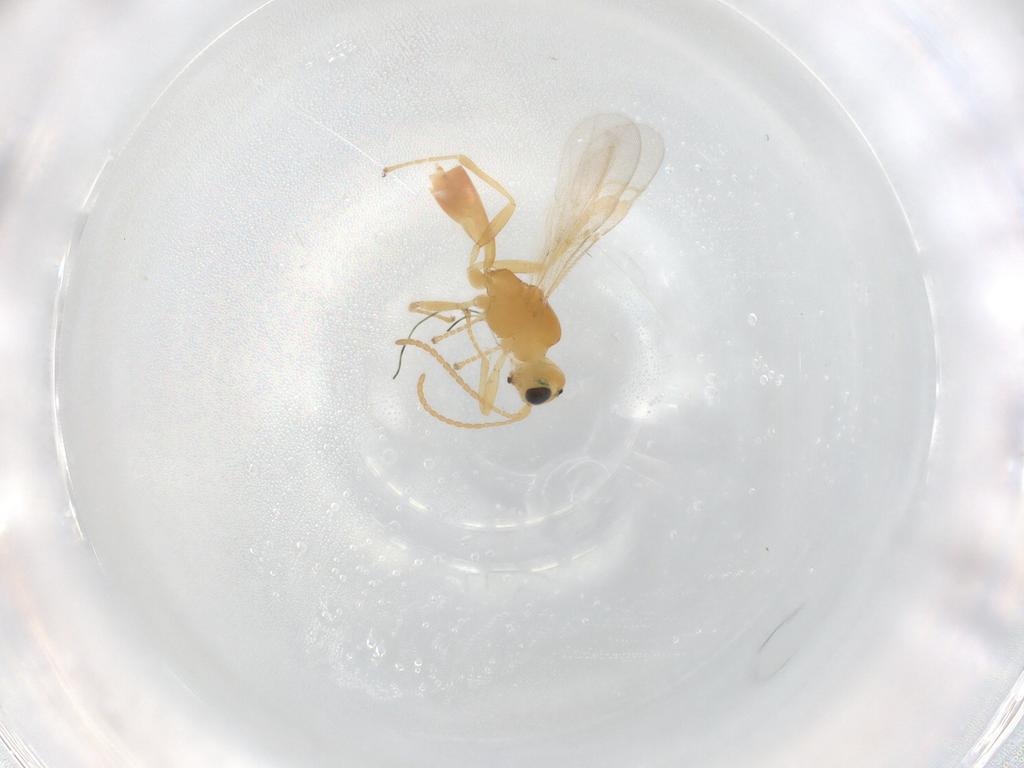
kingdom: Animalia
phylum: Arthropoda
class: Insecta
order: Hymenoptera
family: Braconidae
